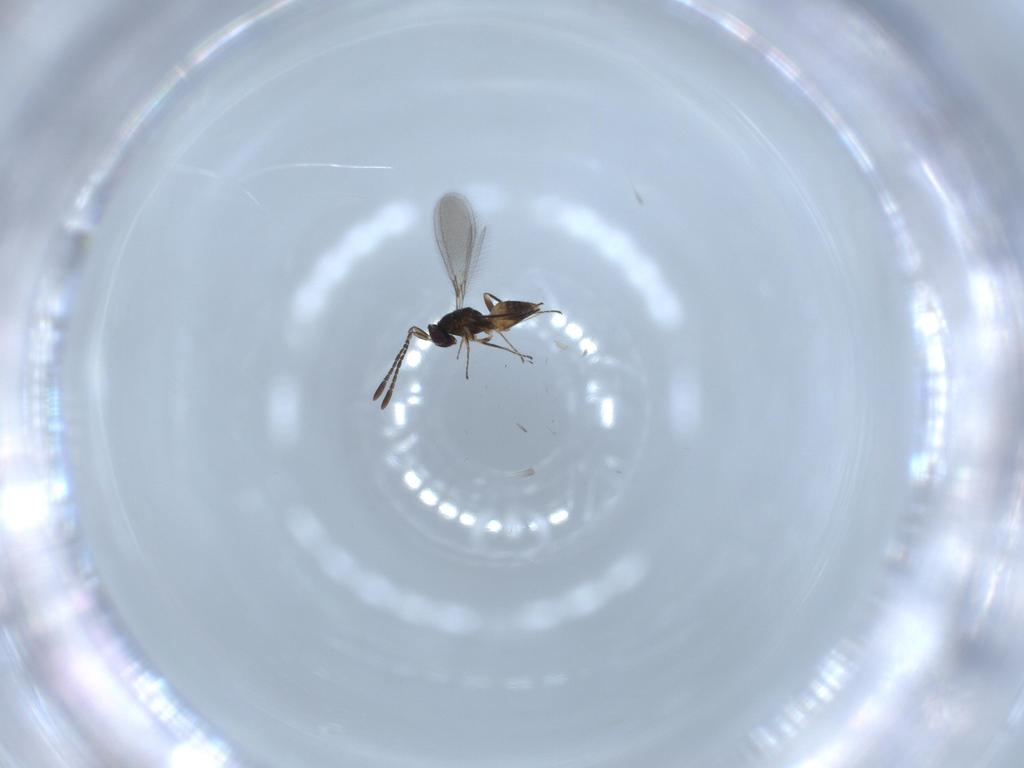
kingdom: Animalia
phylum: Arthropoda
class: Insecta
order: Hymenoptera
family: Mymaridae
